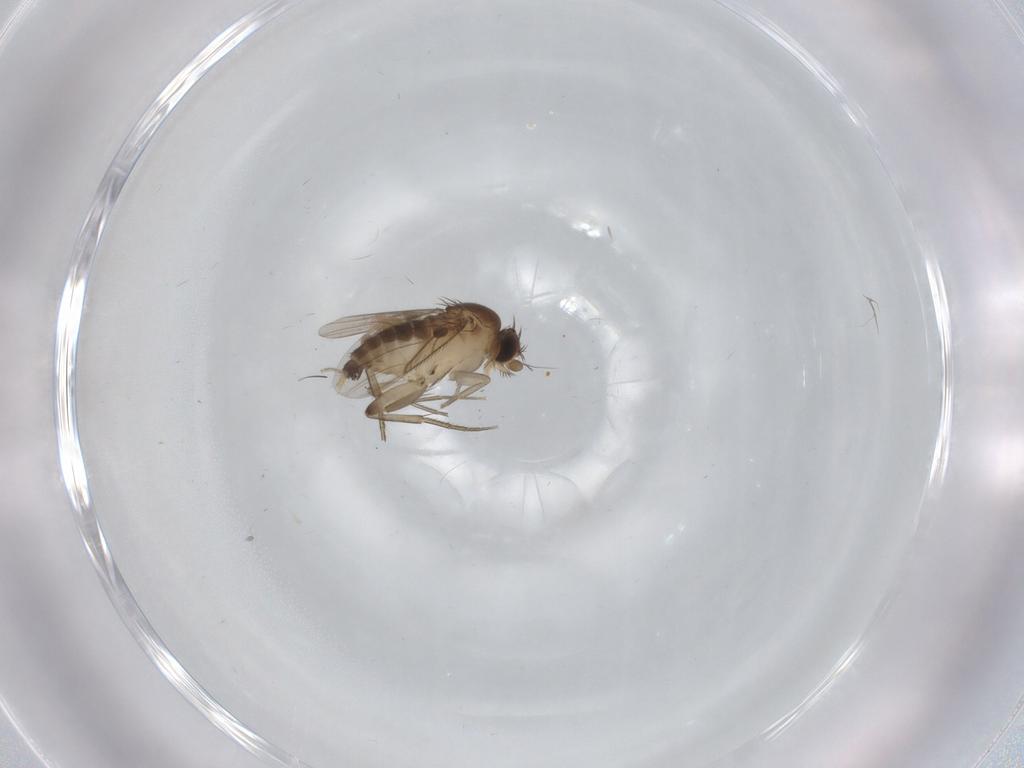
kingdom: Animalia
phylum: Arthropoda
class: Insecta
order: Diptera
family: Phoridae
